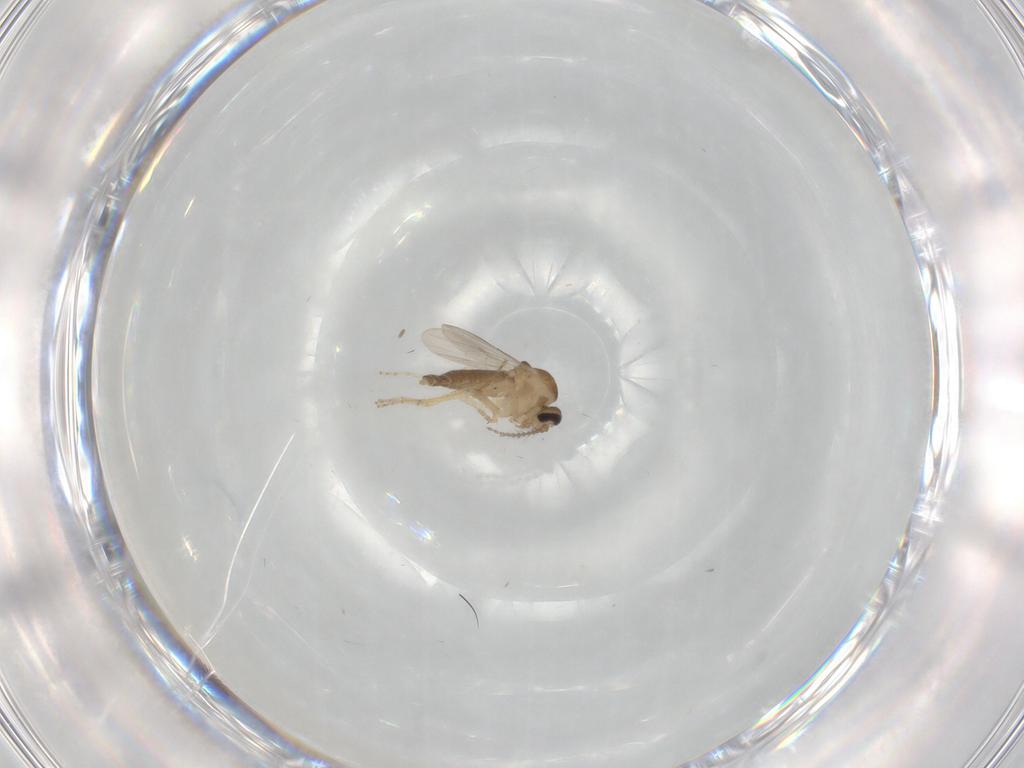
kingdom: Animalia
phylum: Arthropoda
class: Insecta
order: Diptera
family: Ceratopogonidae
